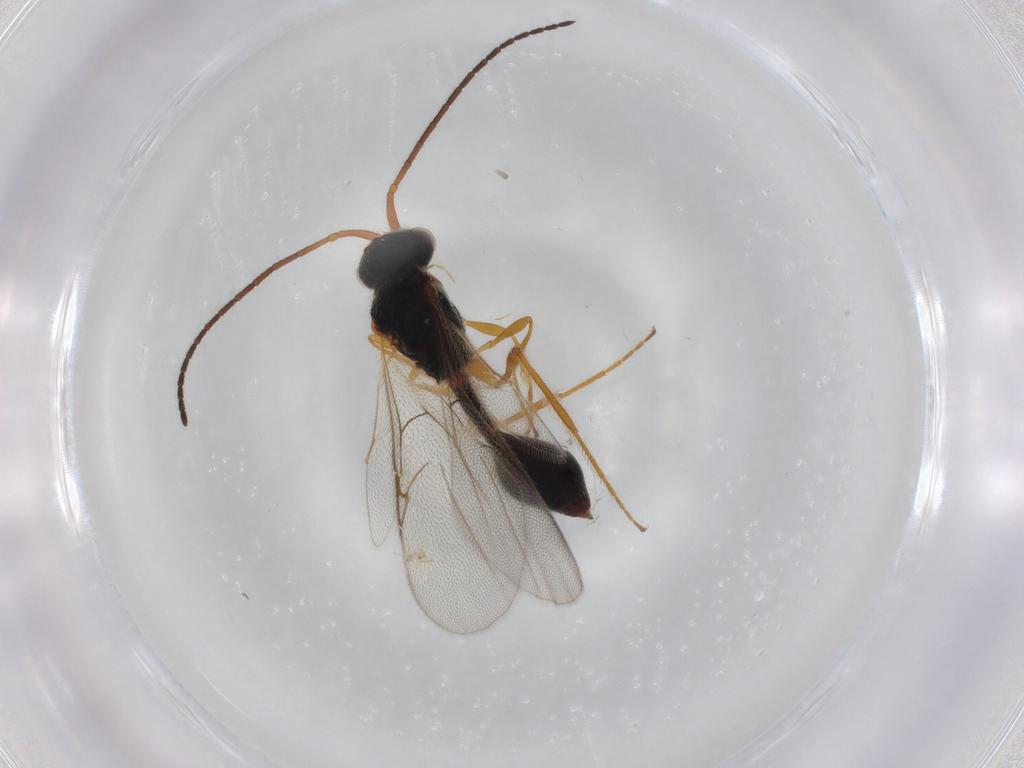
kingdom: Animalia
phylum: Arthropoda
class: Insecta
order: Hymenoptera
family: Diapriidae
